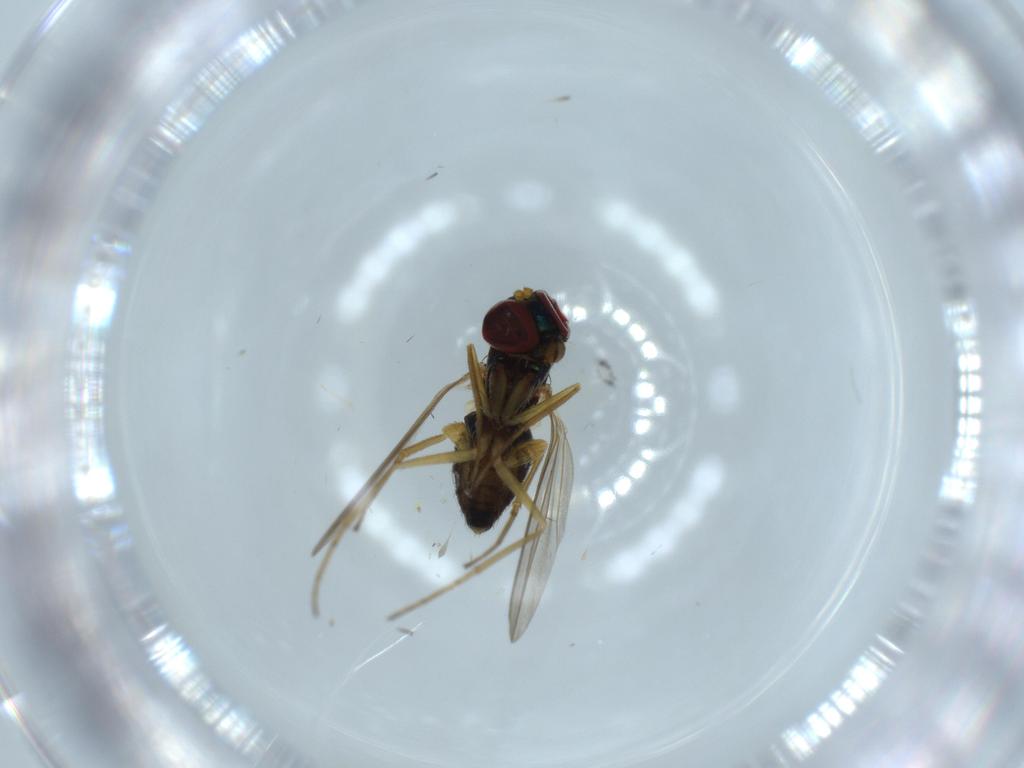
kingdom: Animalia
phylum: Arthropoda
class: Insecta
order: Diptera
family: Dolichopodidae
